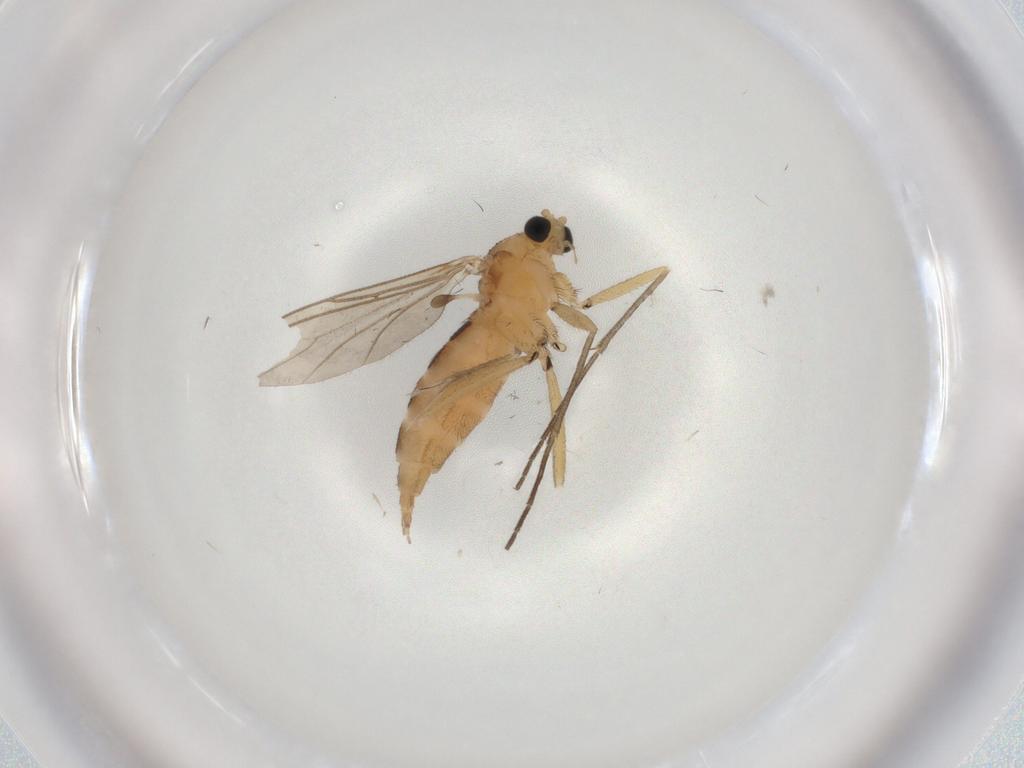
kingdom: Animalia
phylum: Arthropoda
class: Insecta
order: Diptera
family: Sciaridae
